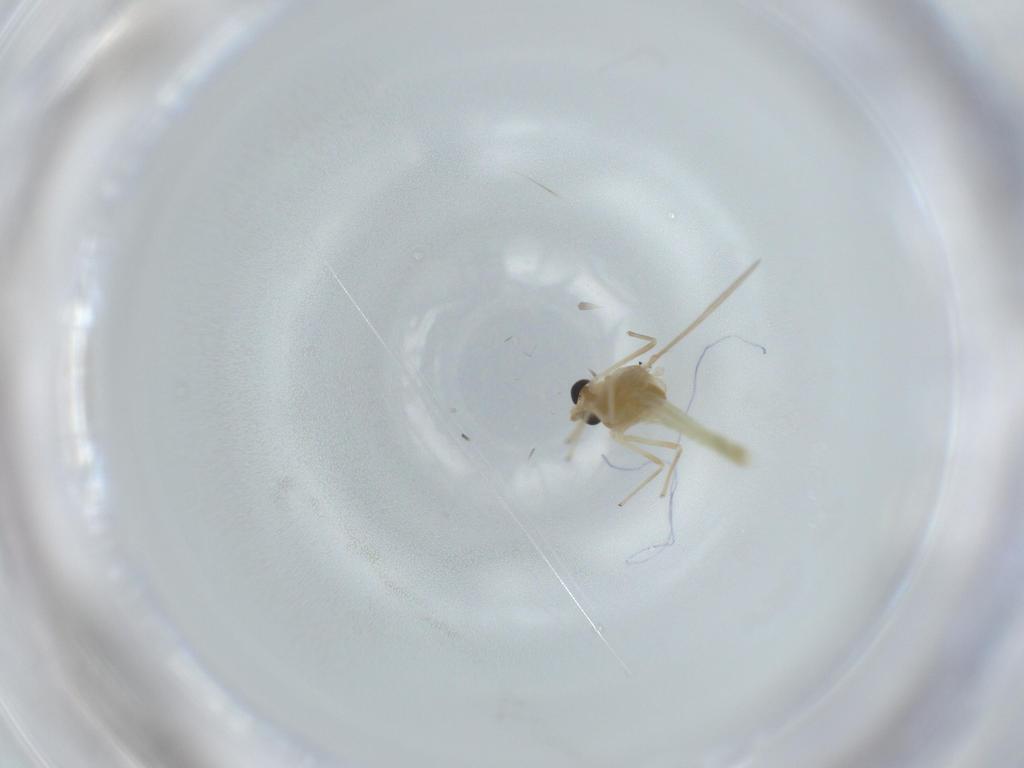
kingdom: Animalia
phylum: Arthropoda
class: Insecta
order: Diptera
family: Chironomidae
